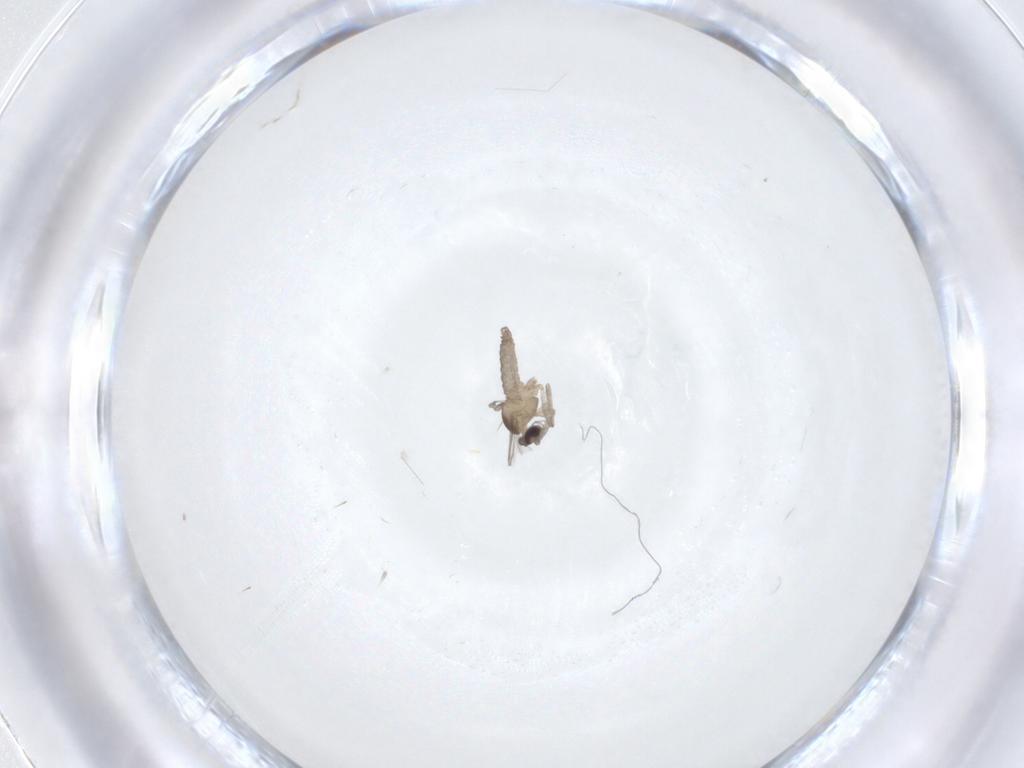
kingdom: Animalia
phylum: Arthropoda
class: Insecta
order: Diptera
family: Cecidomyiidae
